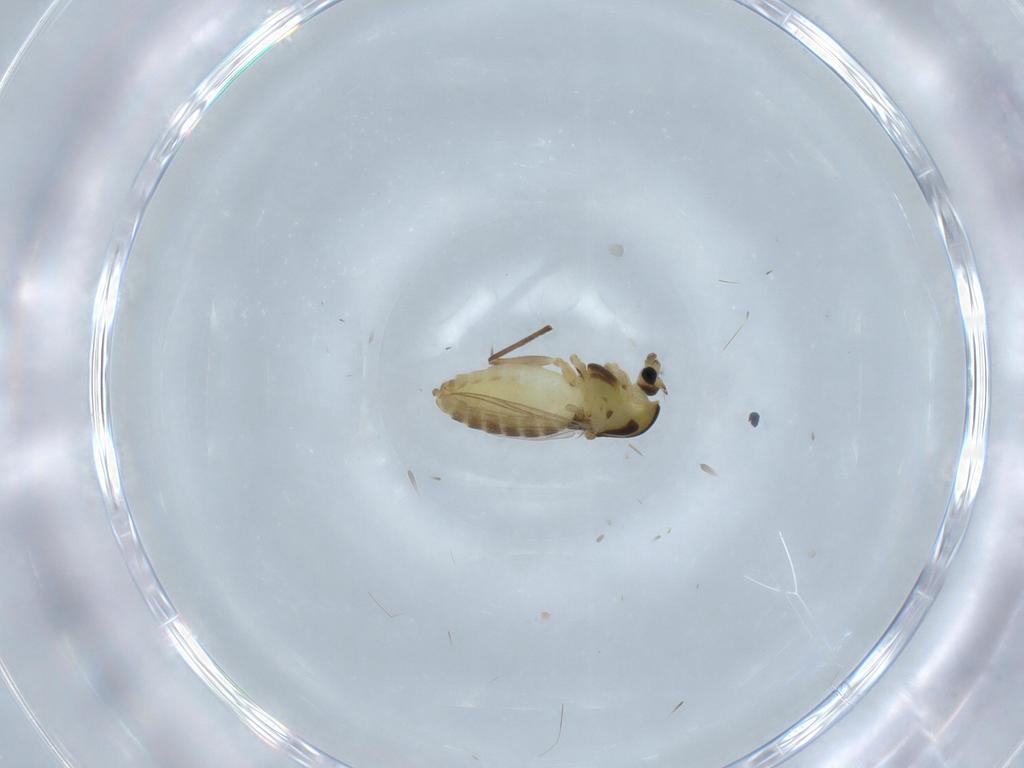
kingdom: Animalia
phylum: Arthropoda
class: Insecta
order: Diptera
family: Chironomidae
